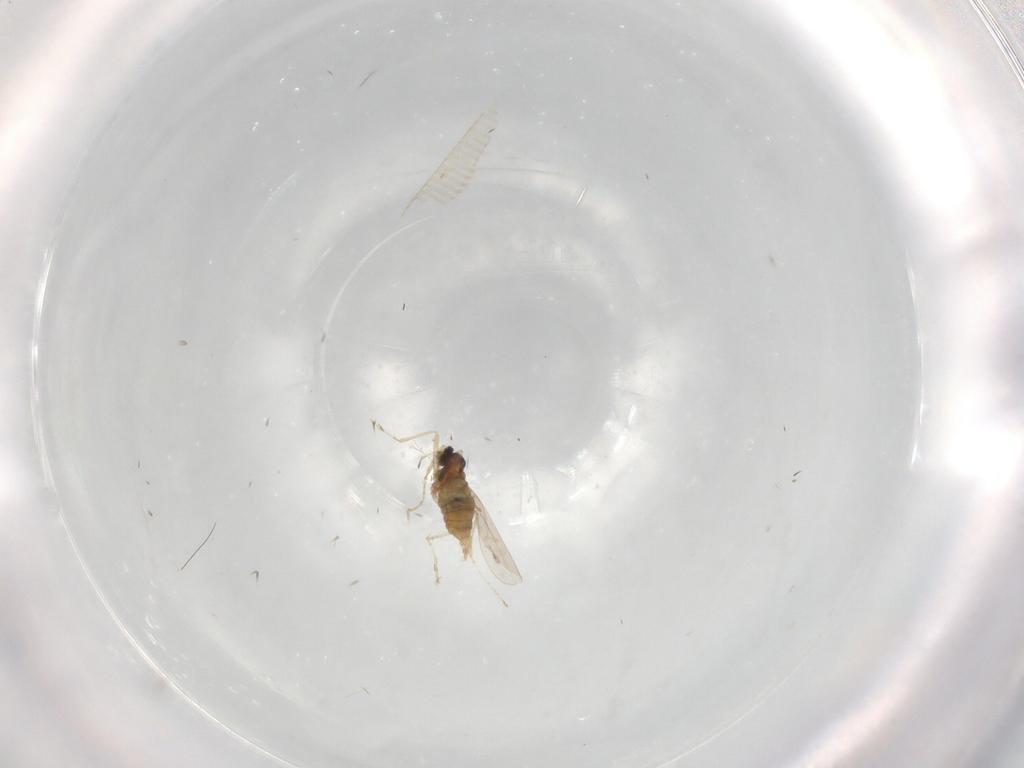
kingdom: Animalia
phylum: Arthropoda
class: Insecta
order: Diptera
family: Cecidomyiidae
